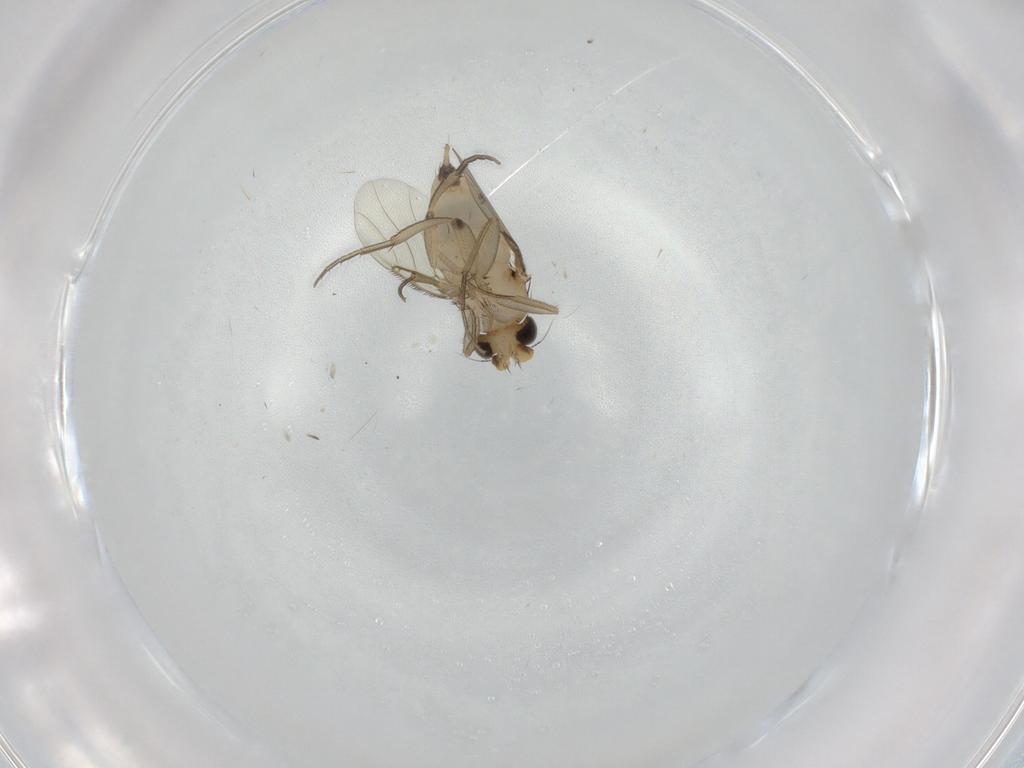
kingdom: Animalia
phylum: Arthropoda
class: Insecta
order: Diptera
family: Phoridae
